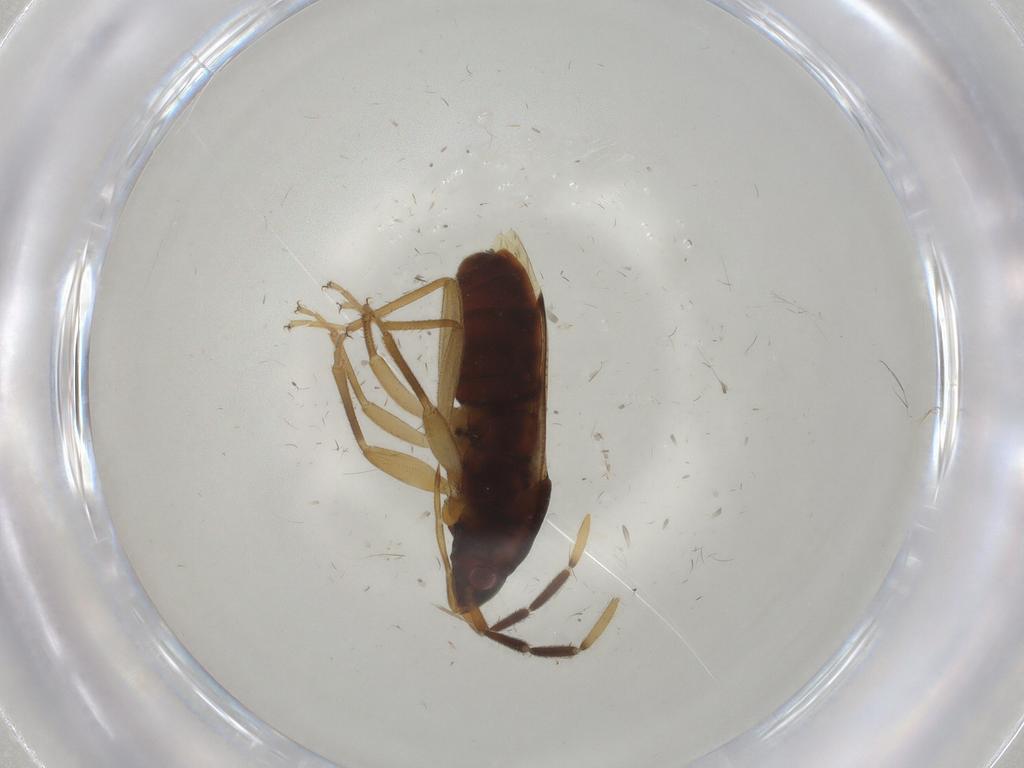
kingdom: Animalia
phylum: Arthropoda
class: Insecta
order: Hemiptera
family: Rhyparochromidae
